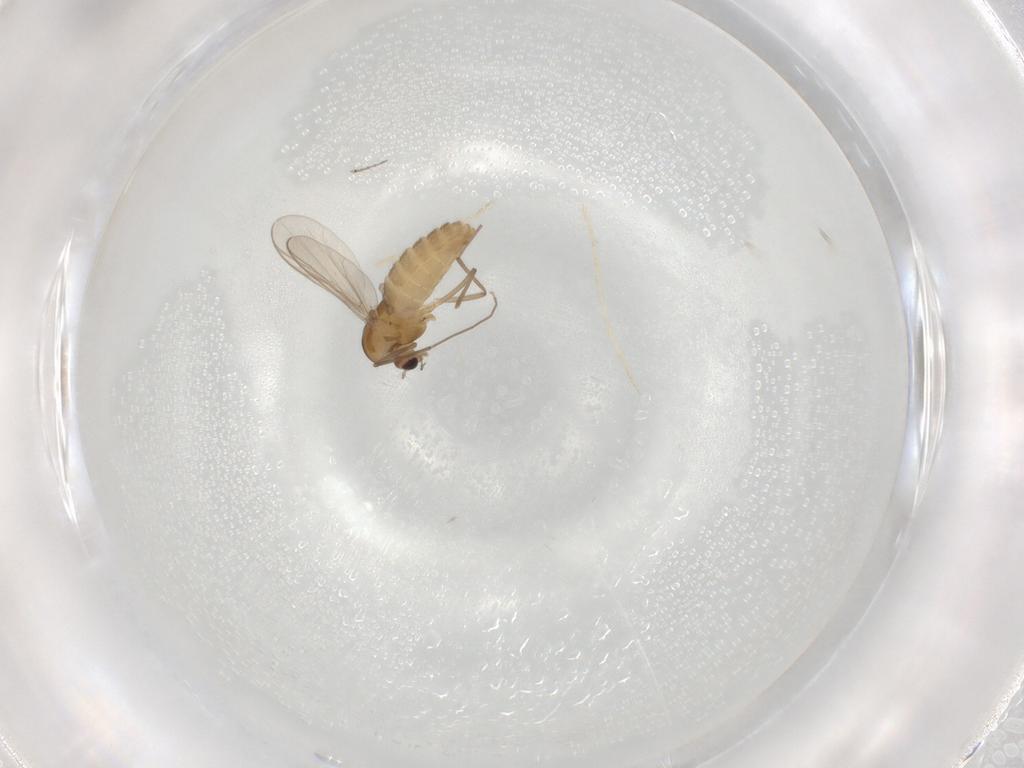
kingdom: Animalia
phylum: Arthropoda
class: Insecta
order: Diptera
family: Chironomidae
